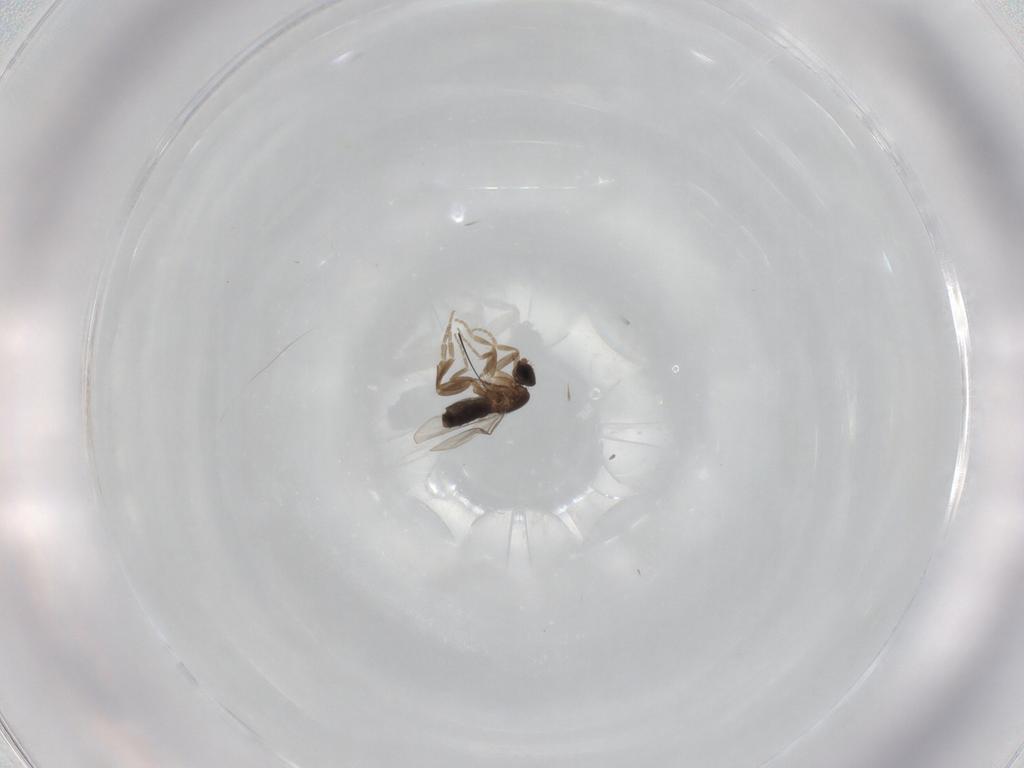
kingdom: Animalia
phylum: Arthropoda
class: Insecta
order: Diptera
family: Phoridae
